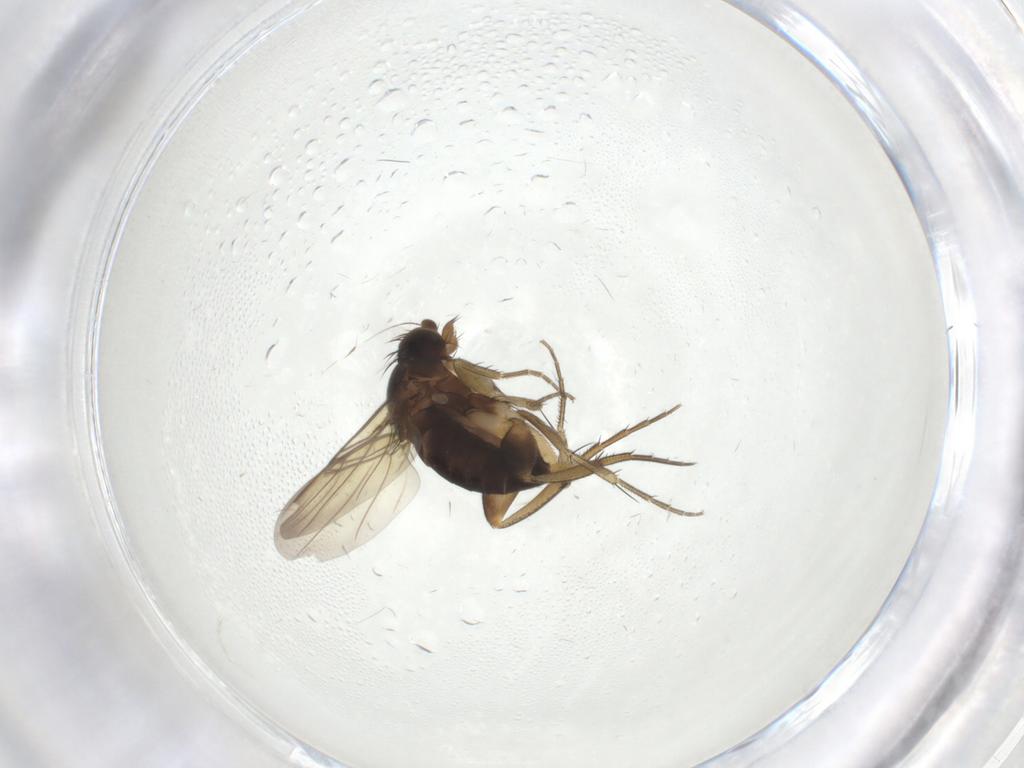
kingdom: Animalia
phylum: Arthropoda
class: Insecta
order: Diptera
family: Phoridae
